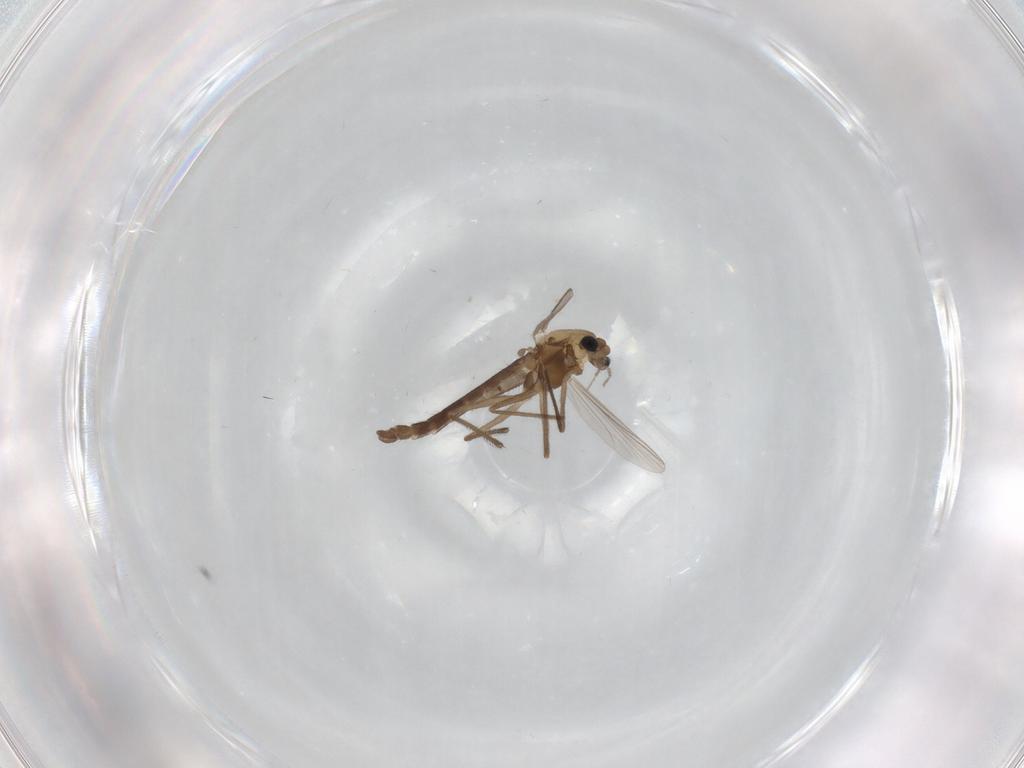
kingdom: Animalia
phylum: Arthropoda
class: Insecta
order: Diptera
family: Chironomidae
